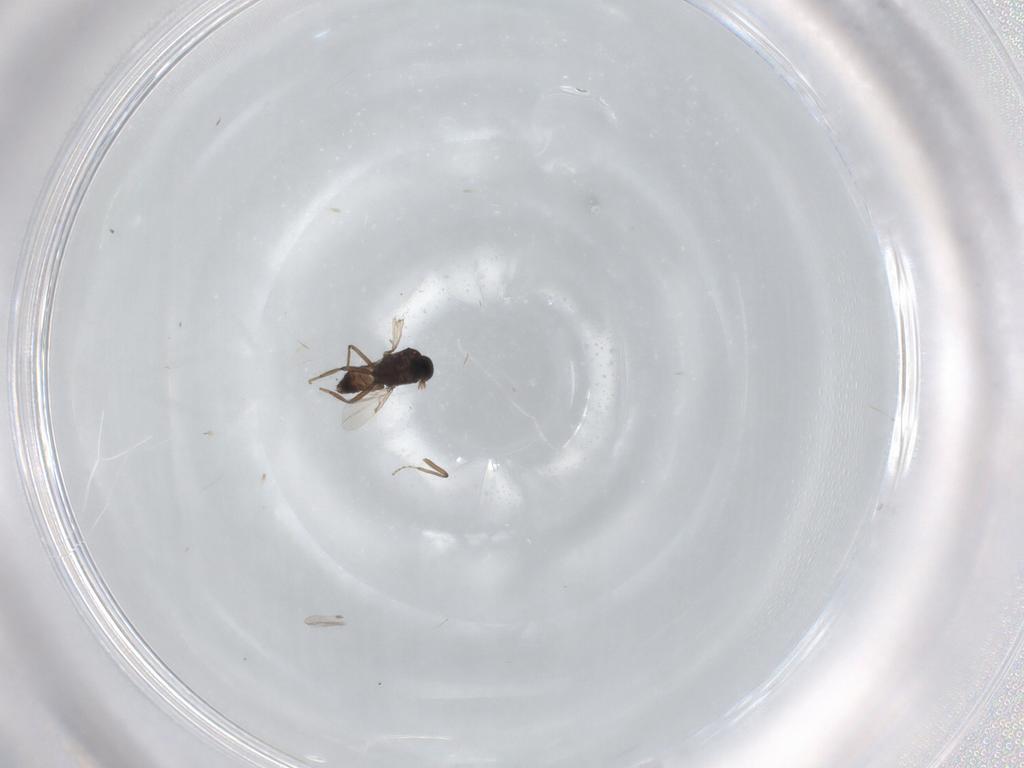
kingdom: Animalia
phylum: Arthropoda
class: Insecta
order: Diptera
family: Ceratopogonidae
